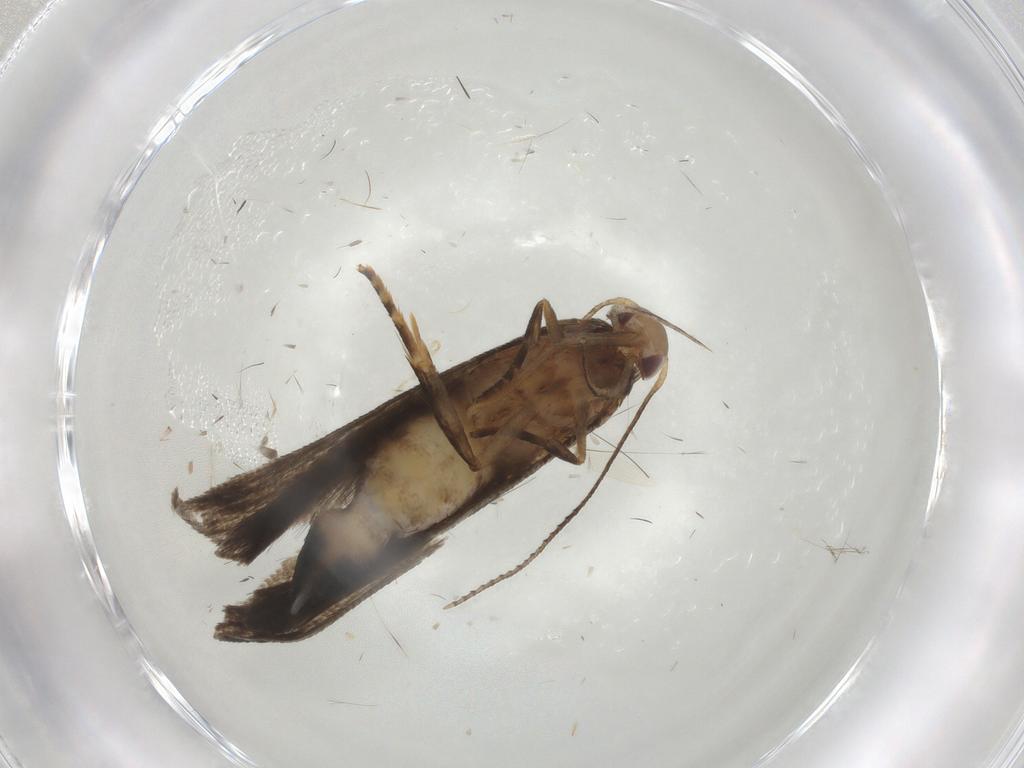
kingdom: Animalia
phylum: Arthropoda
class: Insecta
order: Lepidoptera
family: Gelechiidae
